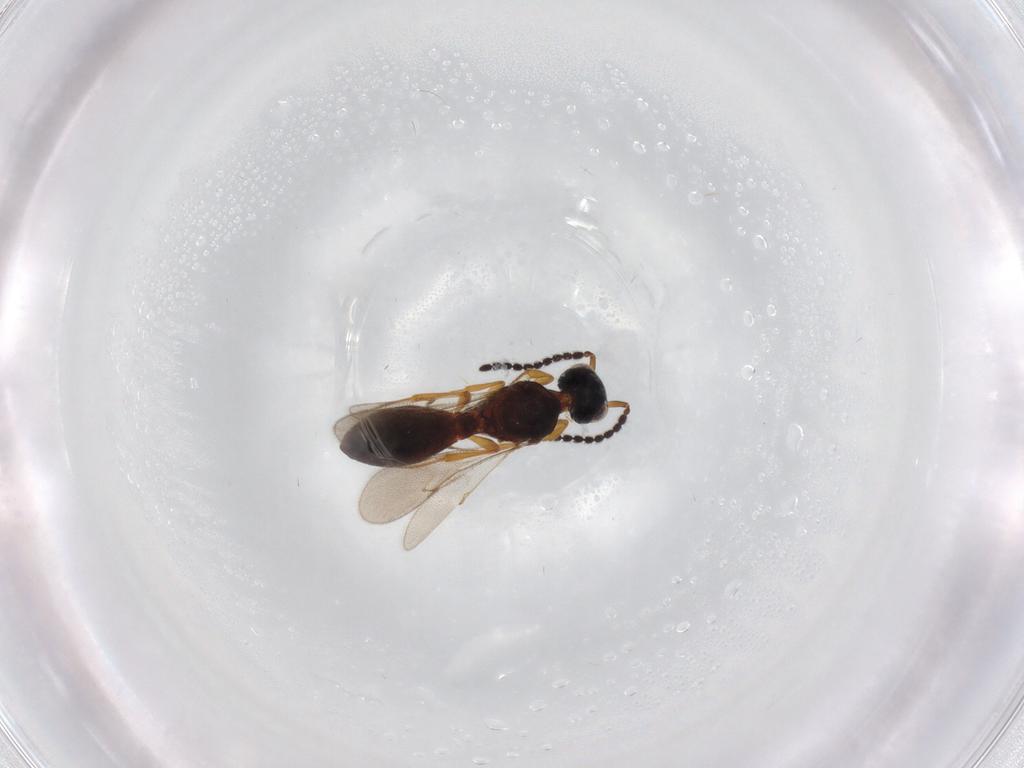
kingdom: Animalia
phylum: Arthropoda
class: Insecta
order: Hymenoptera
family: Scelionidae
